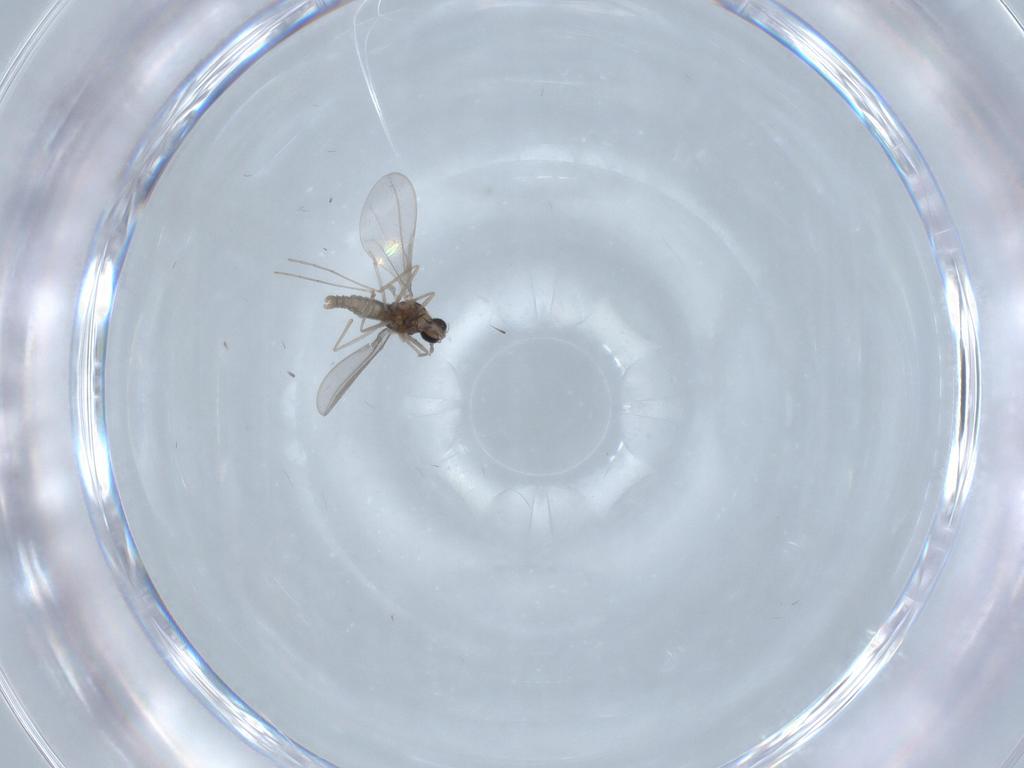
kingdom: Animalia
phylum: Arthropoda
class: Insecta
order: Diptera
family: Cecidomyiidae
